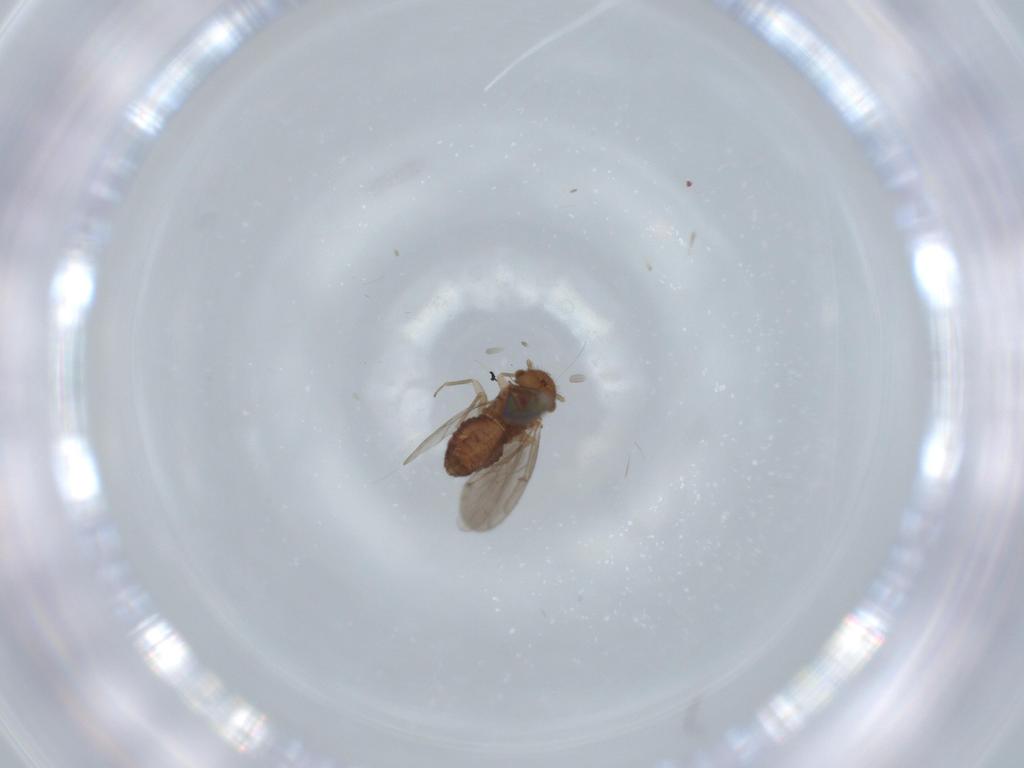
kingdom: Animalia
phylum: Arthropoda
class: Insecta
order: Psocodea
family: Ectopsocidae
